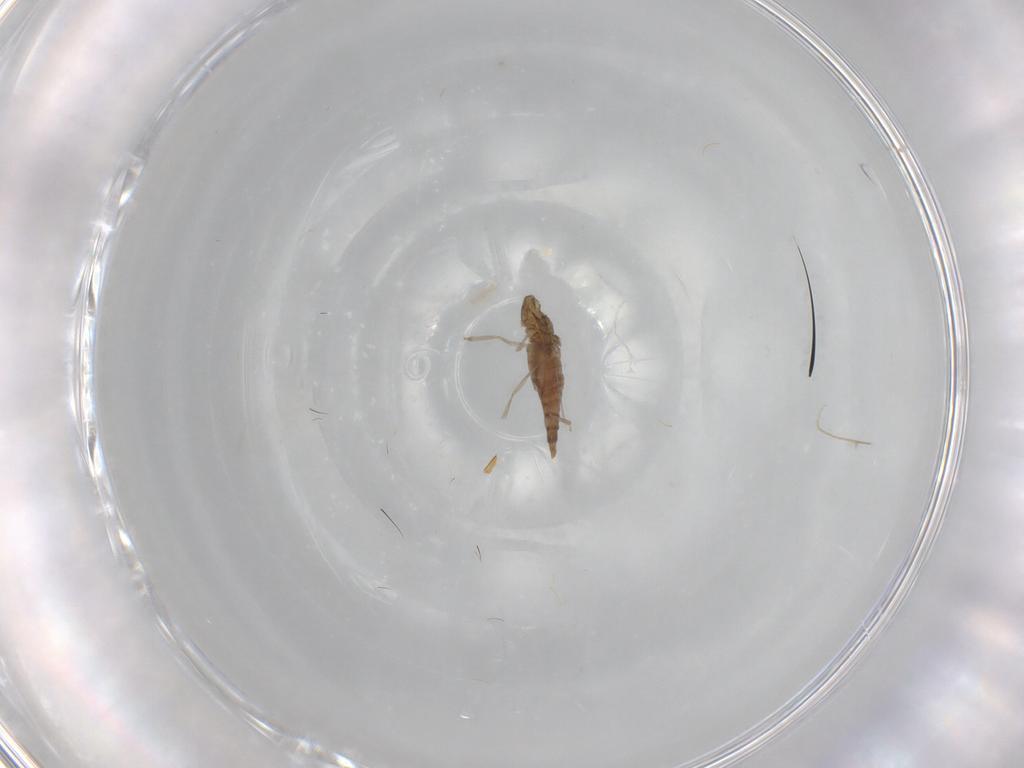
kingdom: Animalia
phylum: Arthropoda
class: Insecta
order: Diptera
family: Cecidomyiidae
